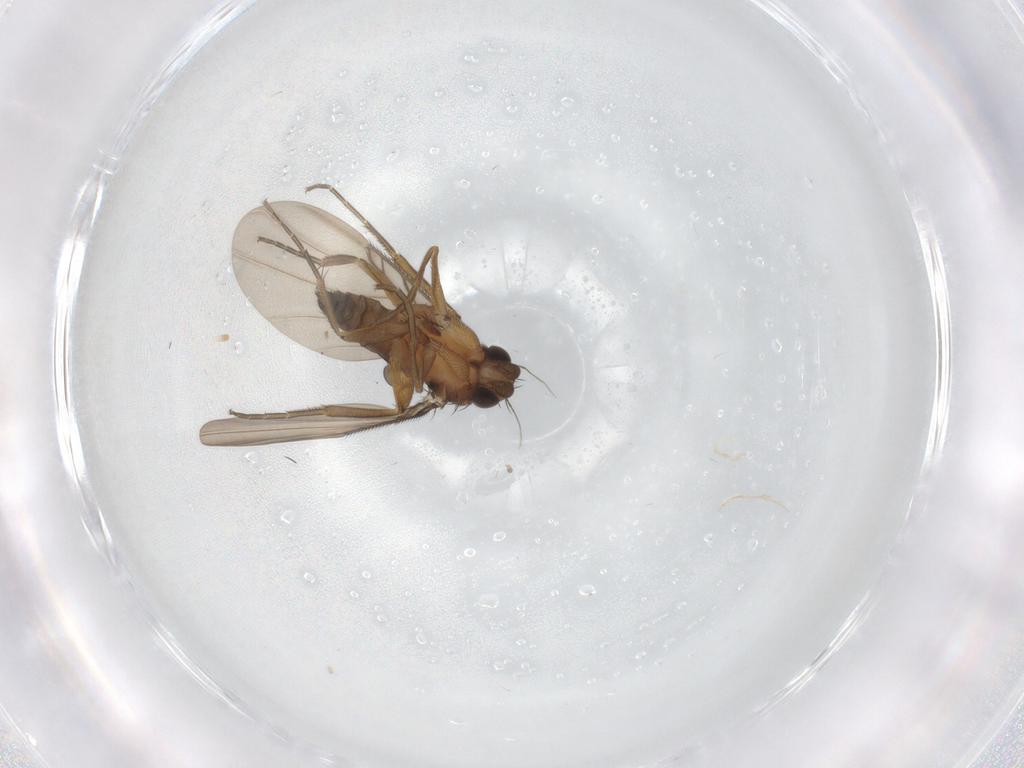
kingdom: Animalia
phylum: Arthropoda
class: Insecta
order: Diptera
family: Phoridae
